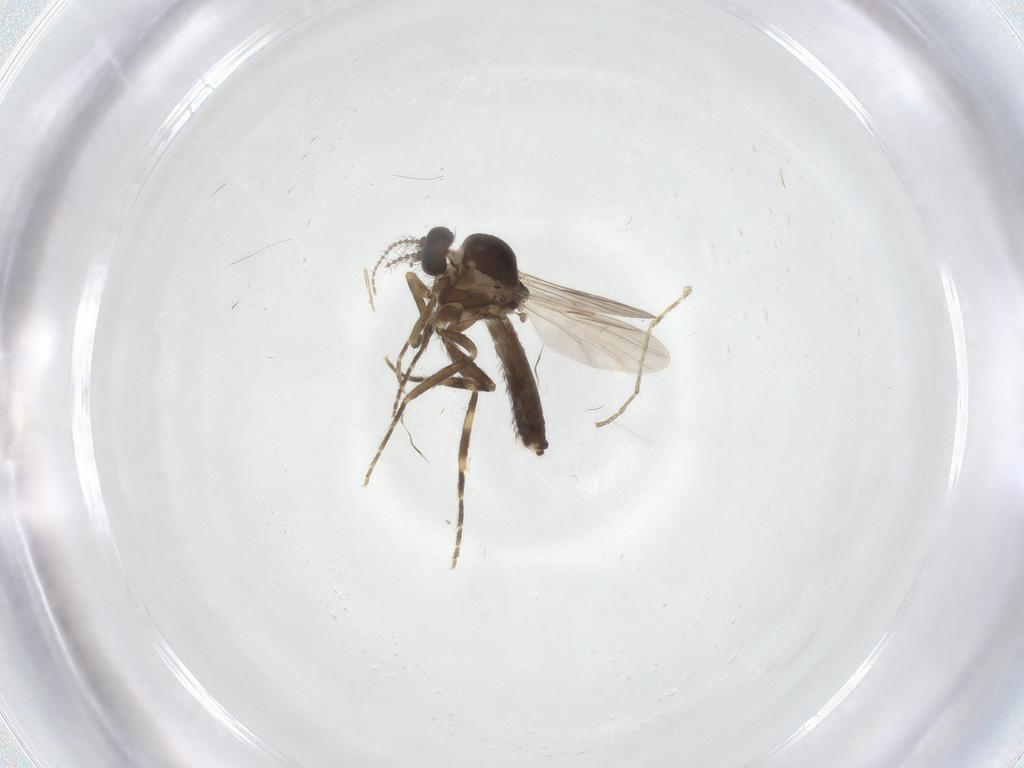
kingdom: Animalia
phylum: Arthropoda
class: Insecta
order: Diptera
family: Ceratopogonidae
